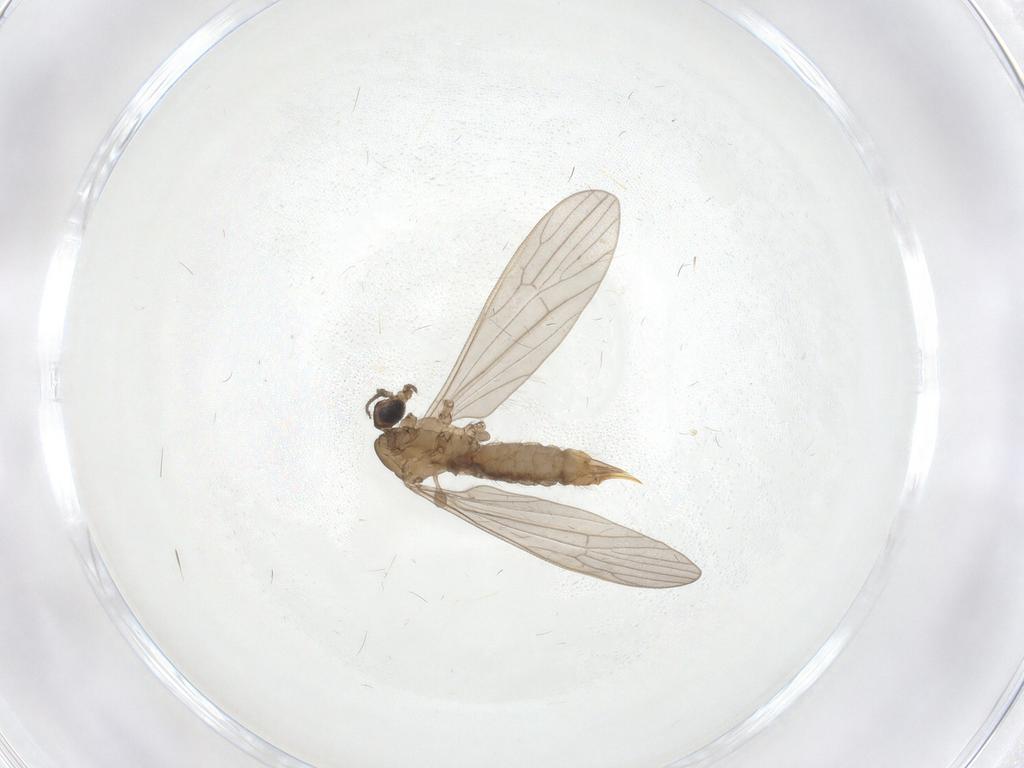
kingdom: Animalia
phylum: Arthropoda
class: Insecta
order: Diptera
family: Limoniidae
